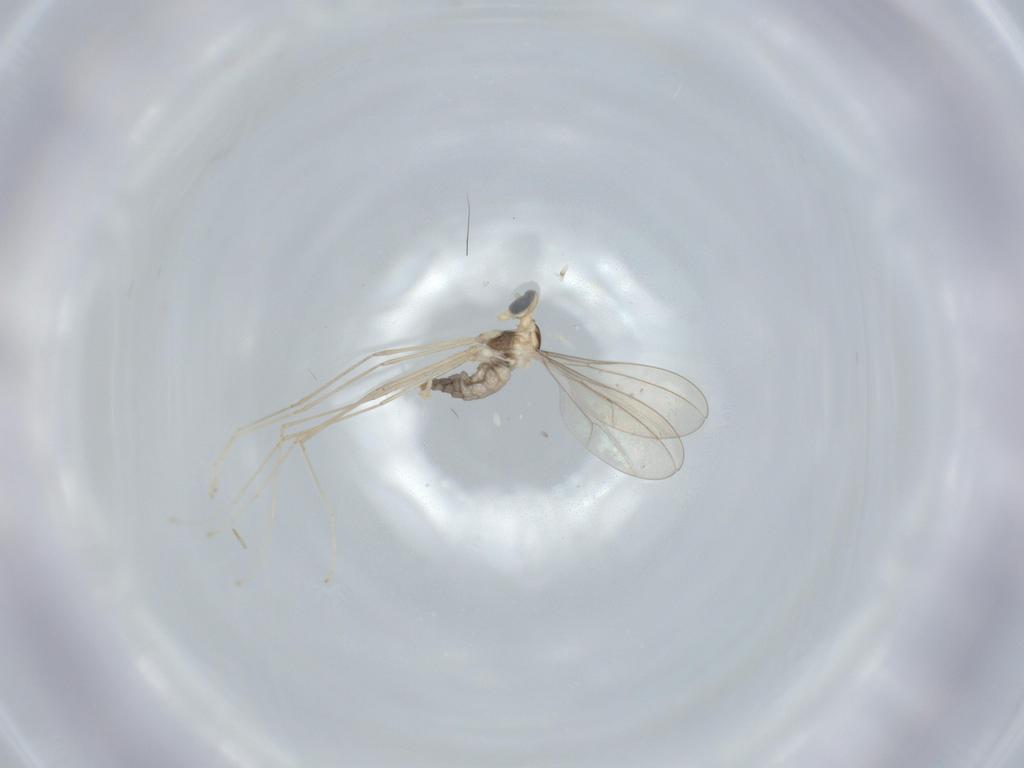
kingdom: Animalia
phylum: Arthropoda
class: Insecta
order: Diptera
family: Cecidomyiidae
